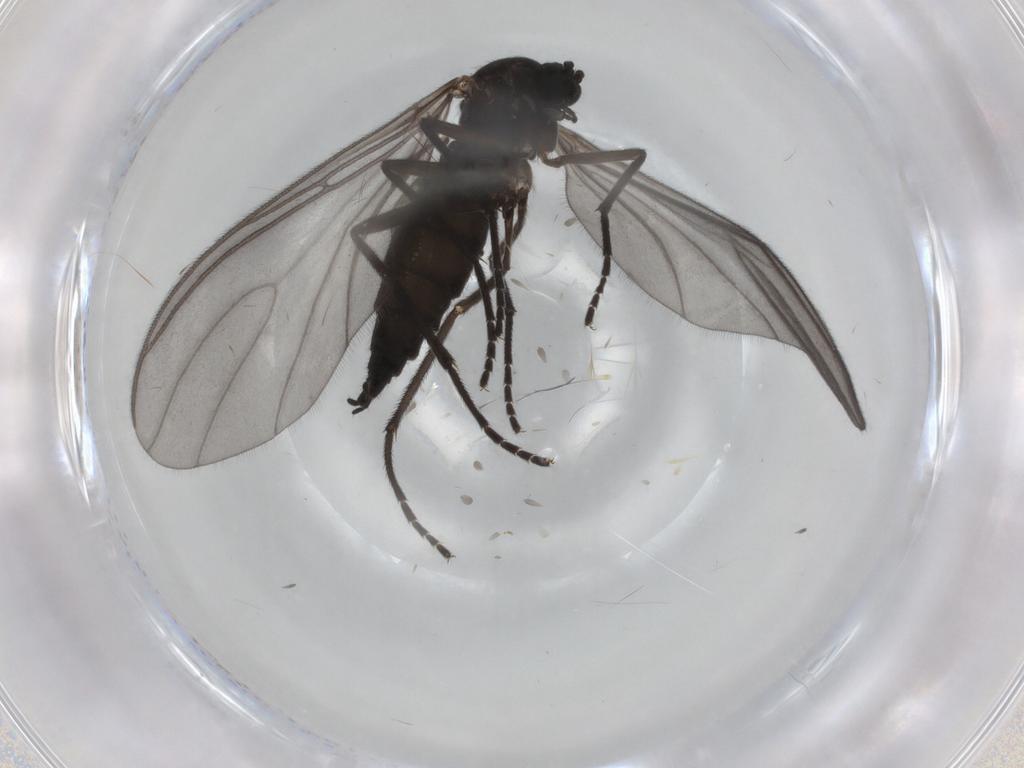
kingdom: Animalia
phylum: Arthropoda
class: Insecta
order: Diptera
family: Sciaridae
